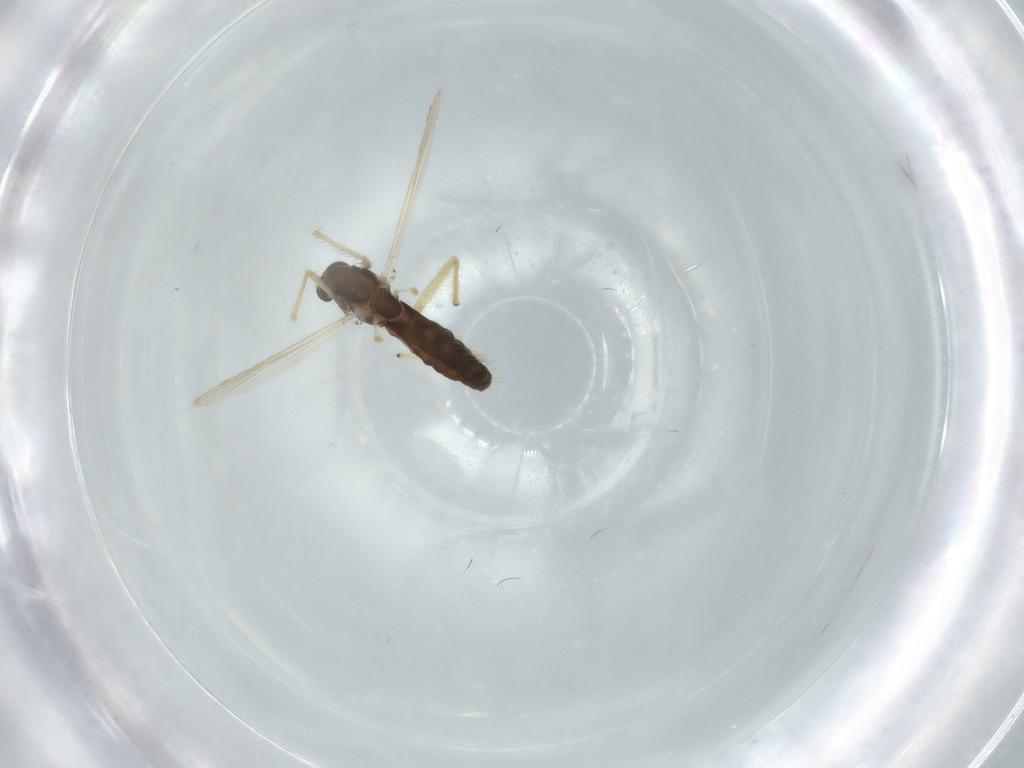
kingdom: Animalia
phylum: Arthropoda
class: Insecta
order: Diptera
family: Chironomidae
